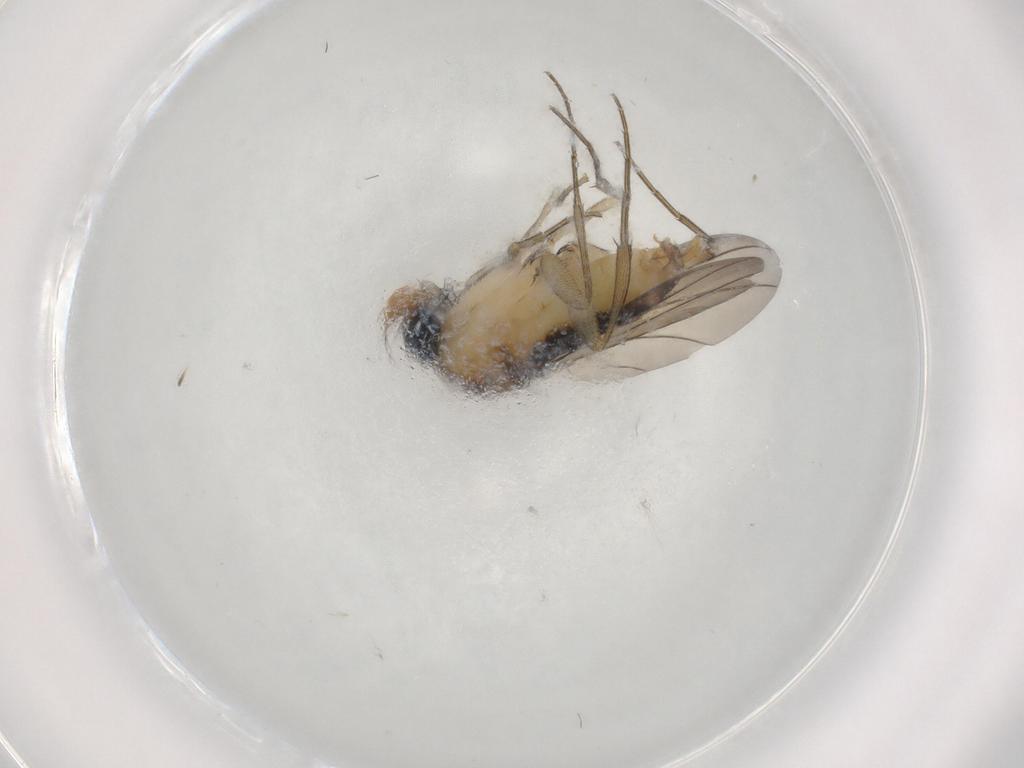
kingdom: Animalia
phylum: Arthropoda
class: Insecta
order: Diptera
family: Phoridae
